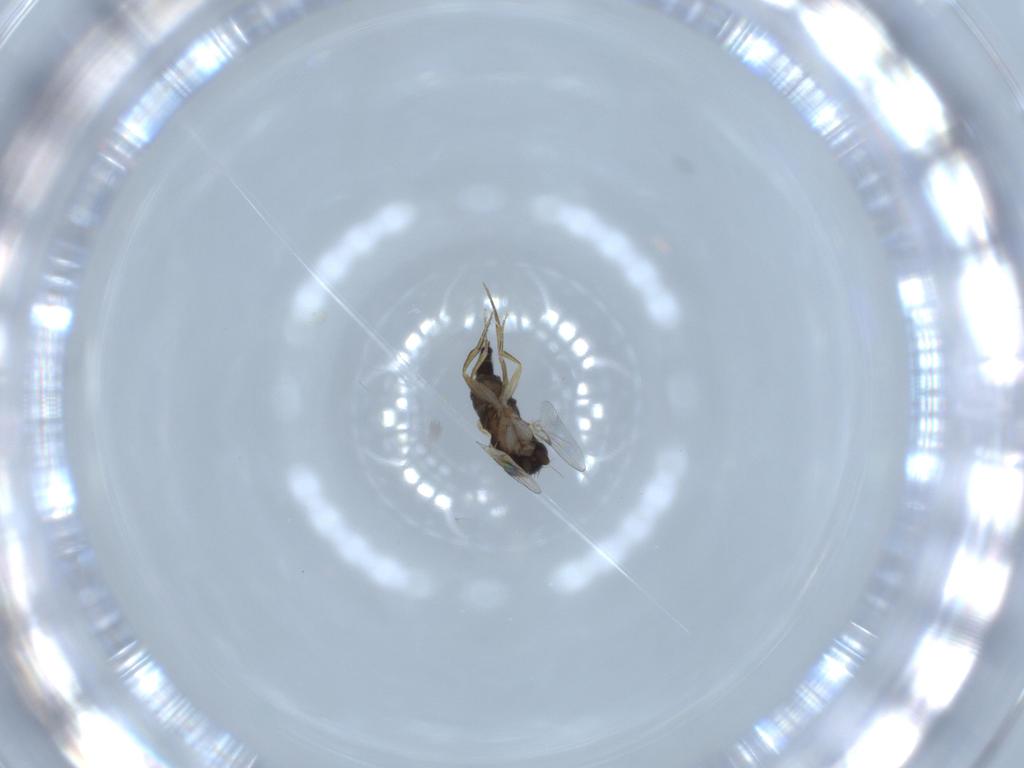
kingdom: Animalia
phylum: Arthropoda
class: Insecta
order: Diptera
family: Phoridae
